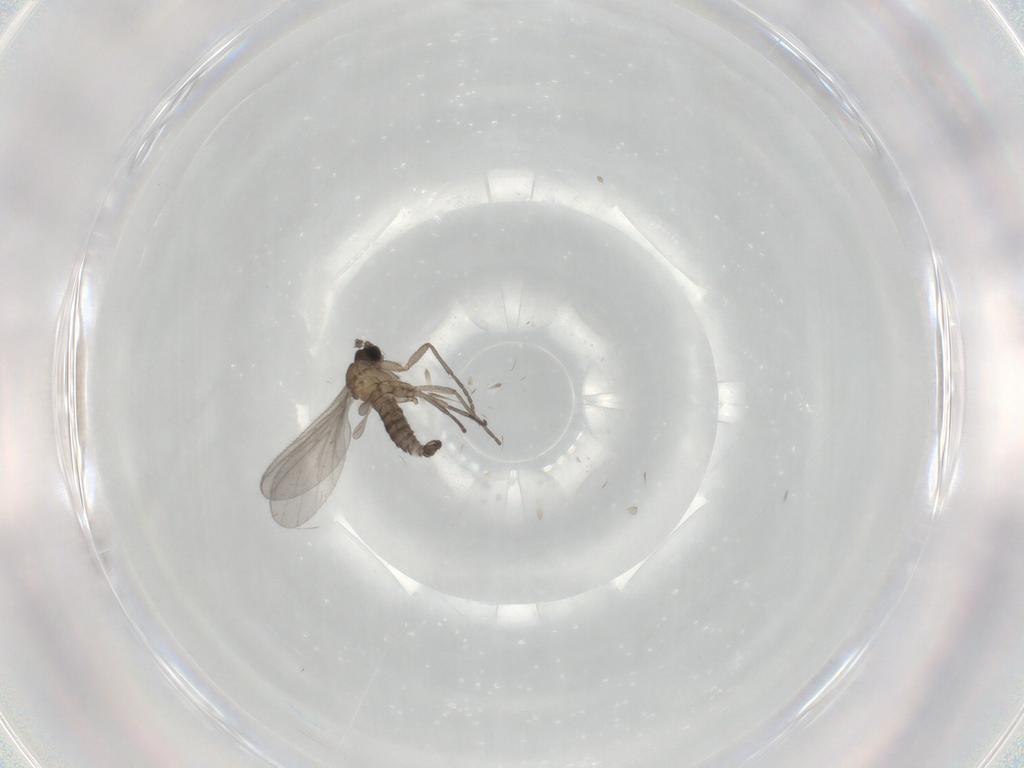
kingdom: Animalia
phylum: Arthropoda
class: Insecta
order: Diptera
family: Sciaridae
